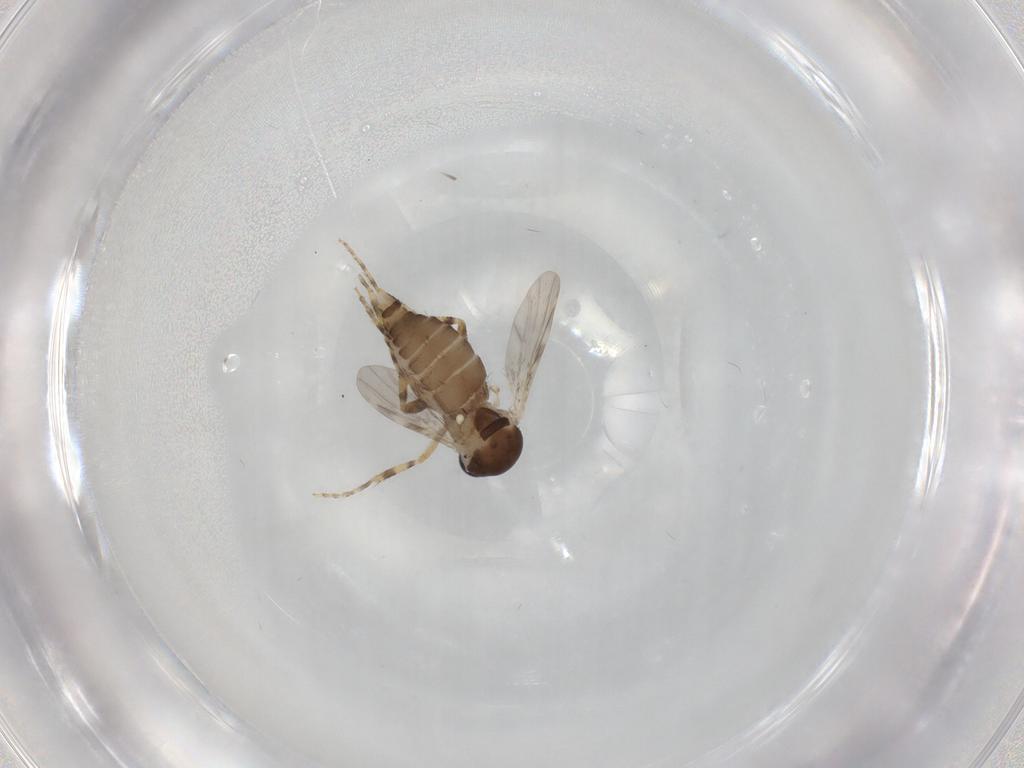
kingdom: Animalia
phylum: Arthropoda
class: Insecta
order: Diptera
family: Ceratopogonidae
